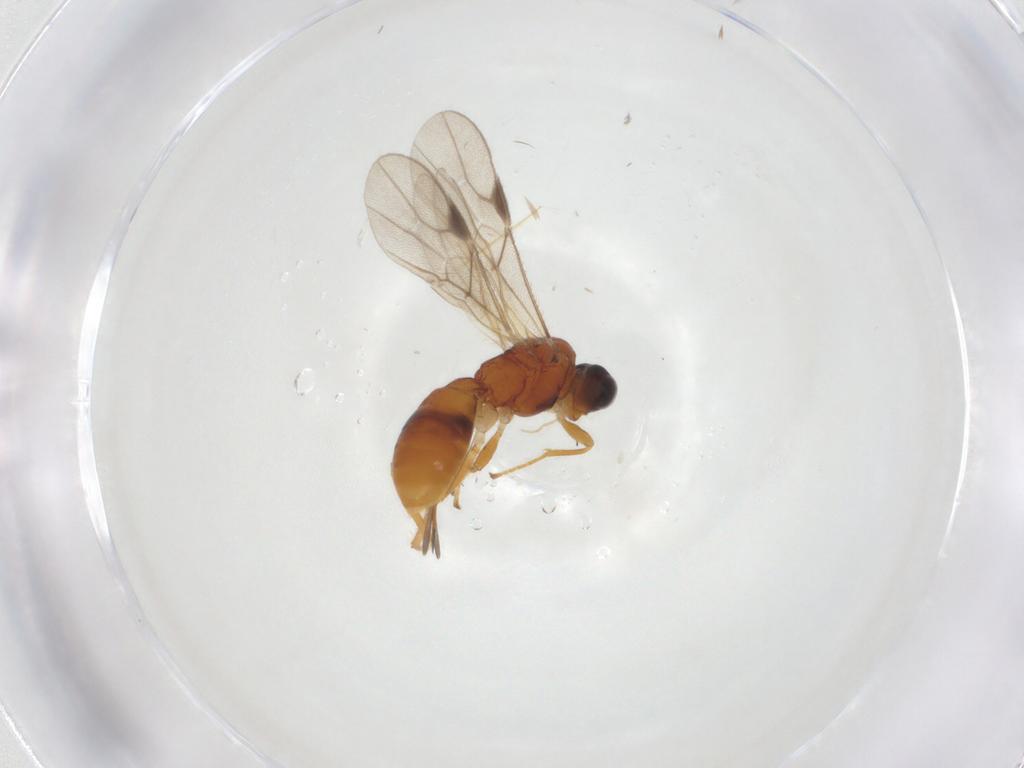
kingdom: Animalia
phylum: Arthropoda
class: Insecta
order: Hymenoptera
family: Braconidae
